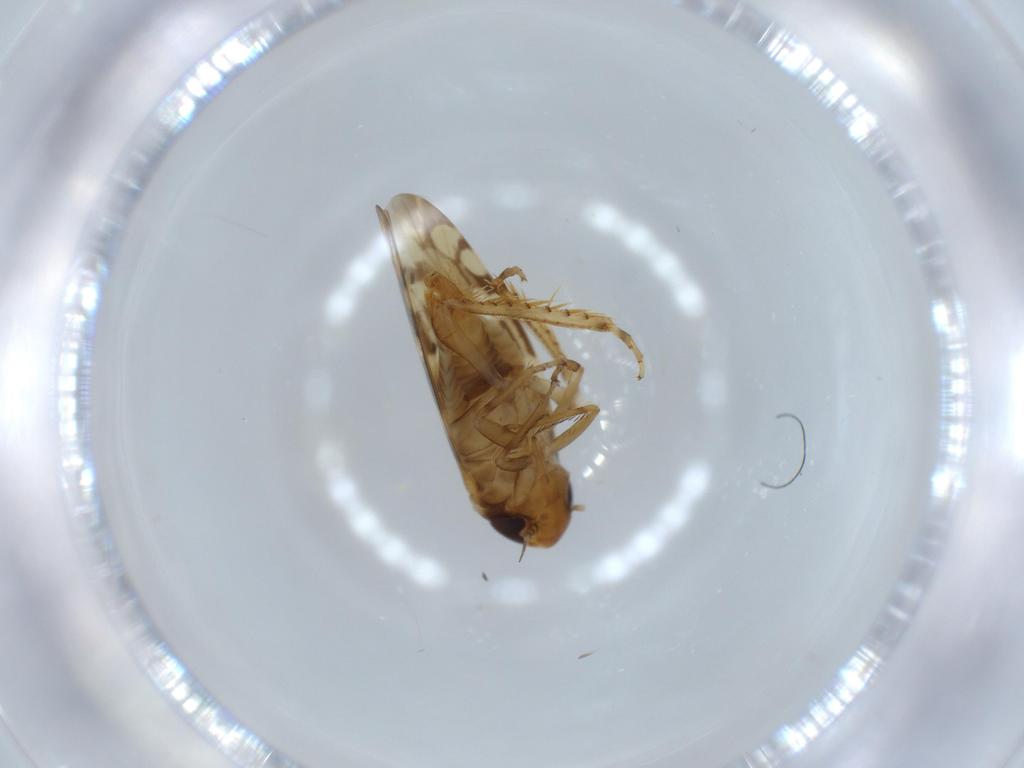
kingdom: Animalia
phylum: Arthropoda
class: Insecta
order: Hemiptera
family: Cicadellidae
